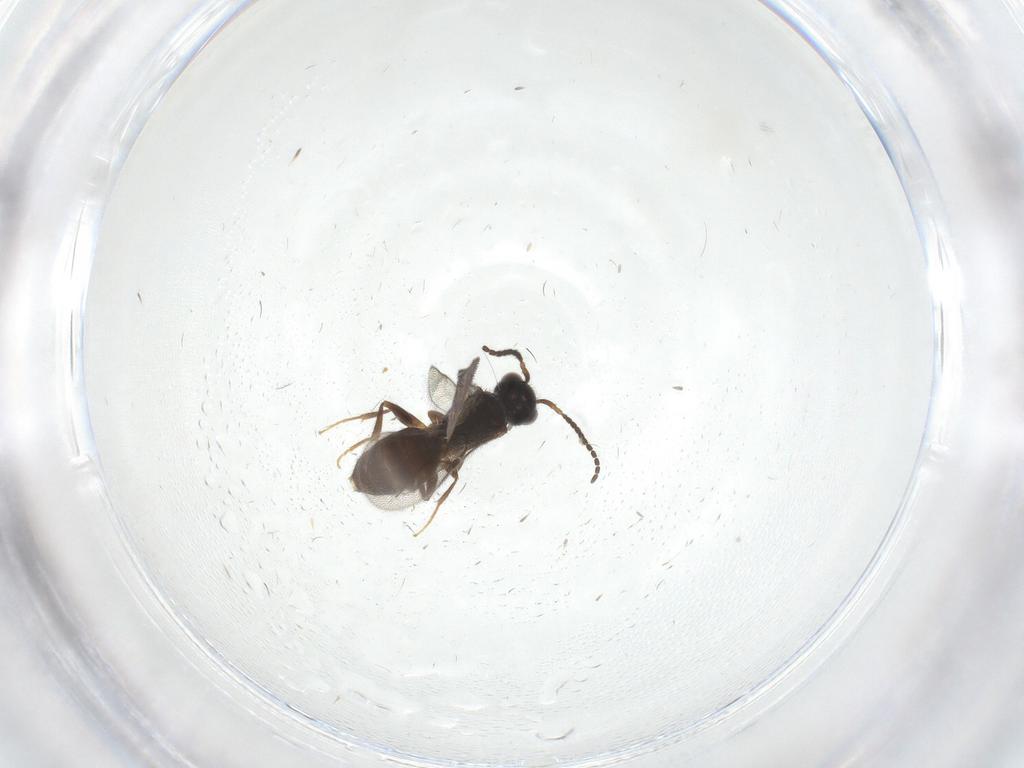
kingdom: Animalia
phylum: Arthropoda
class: Insecta
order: Hymenoptera
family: Bethylidae
